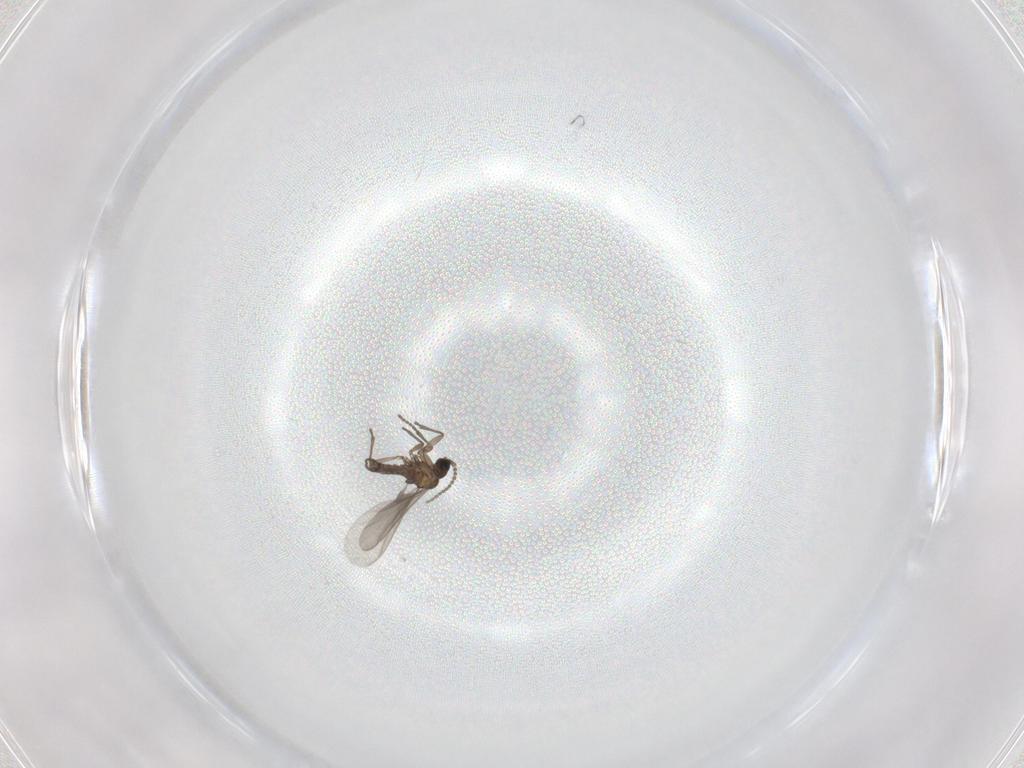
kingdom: Animalia
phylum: Arthropoda
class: Insecta
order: Diptera
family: Chironomidae
